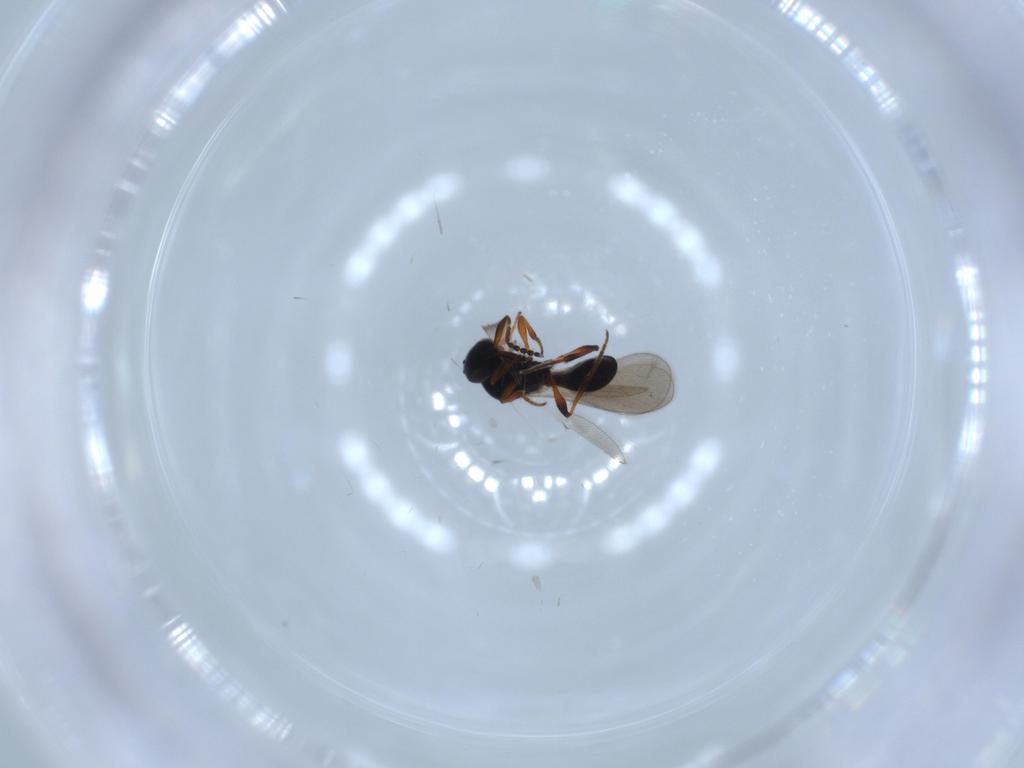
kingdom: Animalia
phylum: Arthropoda
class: Insecta
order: Hymenoptera
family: Platygastridae
